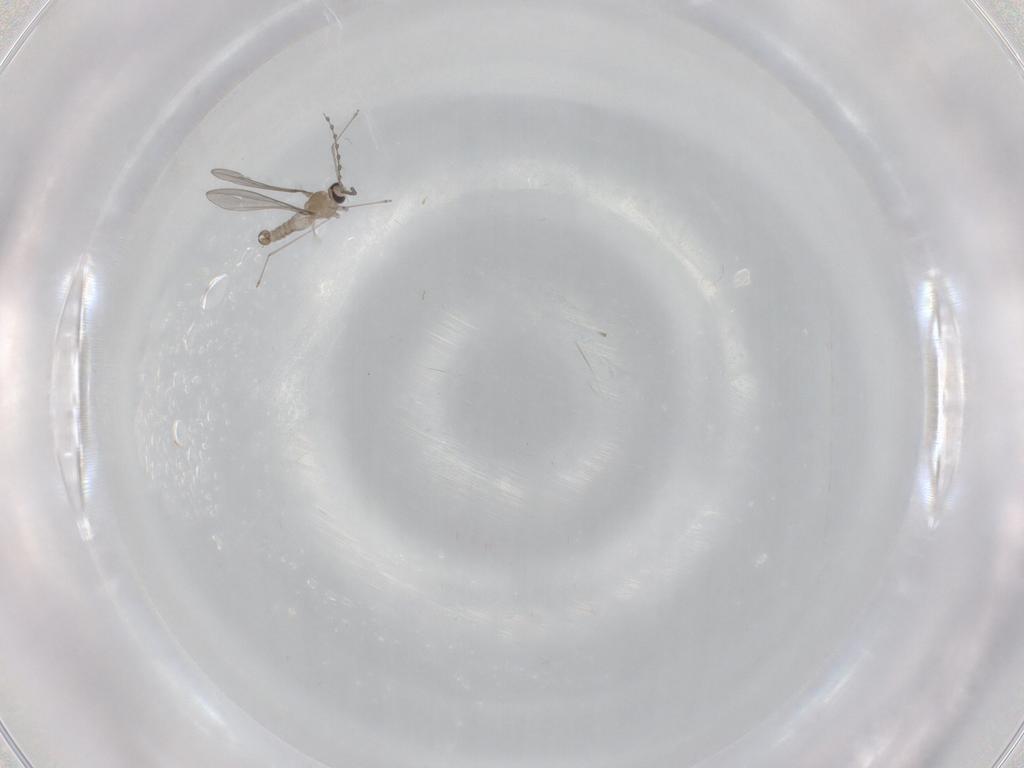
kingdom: Animalia
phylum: Arthropoda
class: Insecta
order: Diptera
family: Cecidomyiidae
